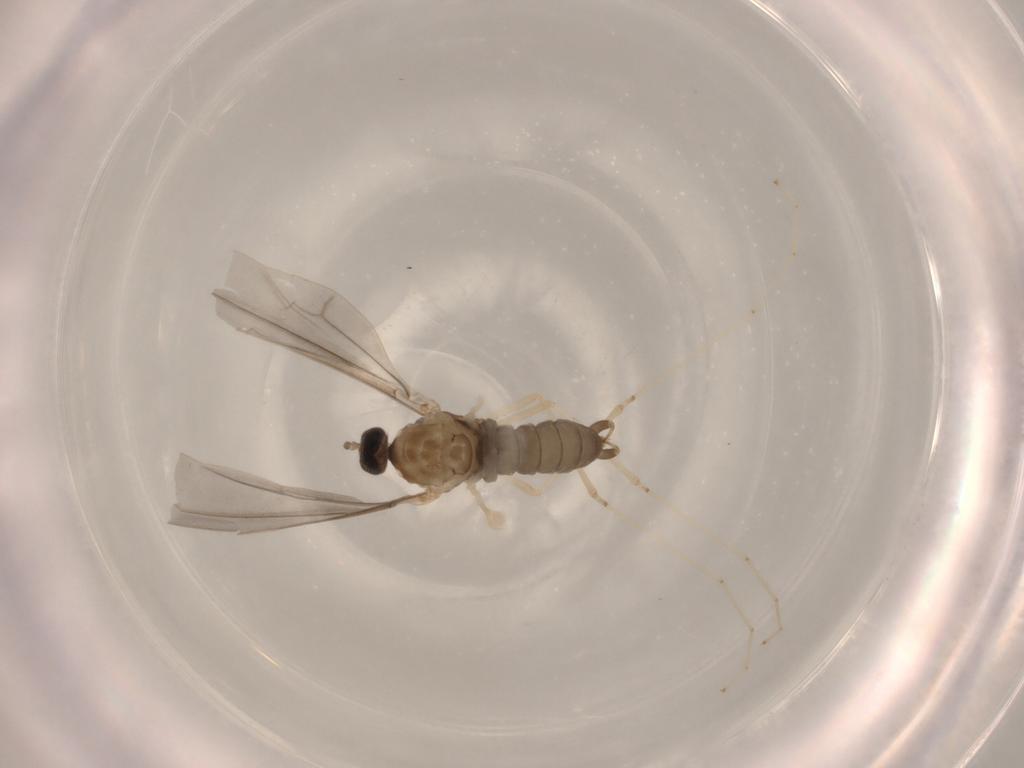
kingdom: Animalia
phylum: Arthropoda
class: Insecta
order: Diptera
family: Cecidomyiidae
